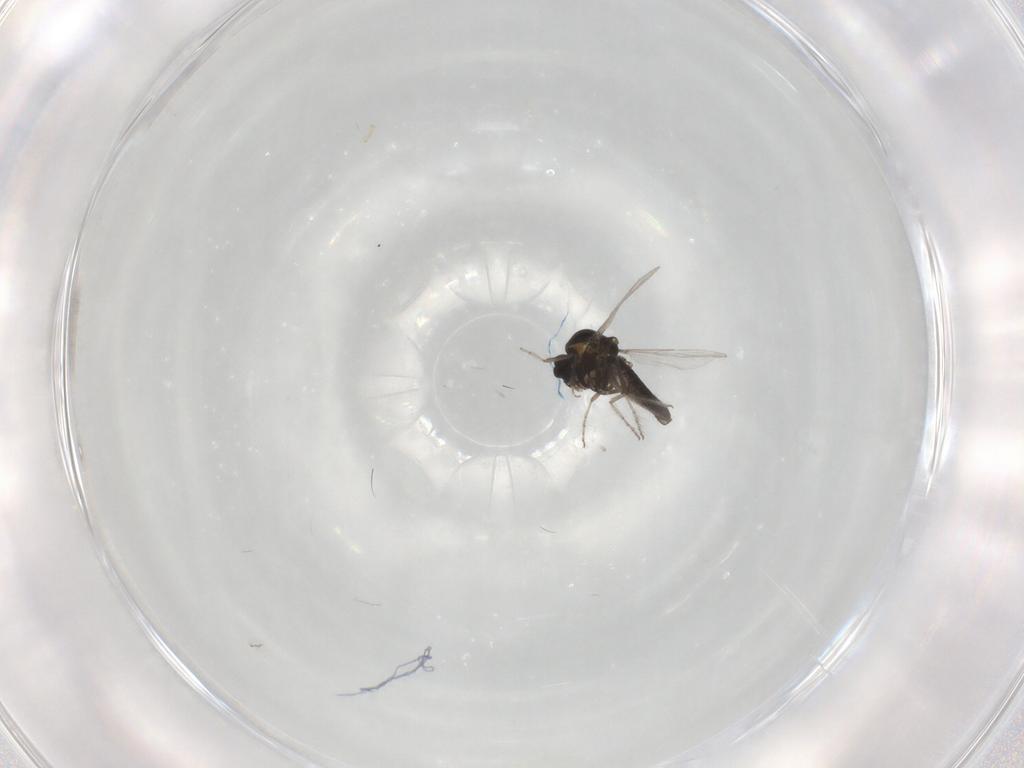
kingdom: Animalia
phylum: Arthropoda
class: Insecta
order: Diptera
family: Ceratopogonidae
